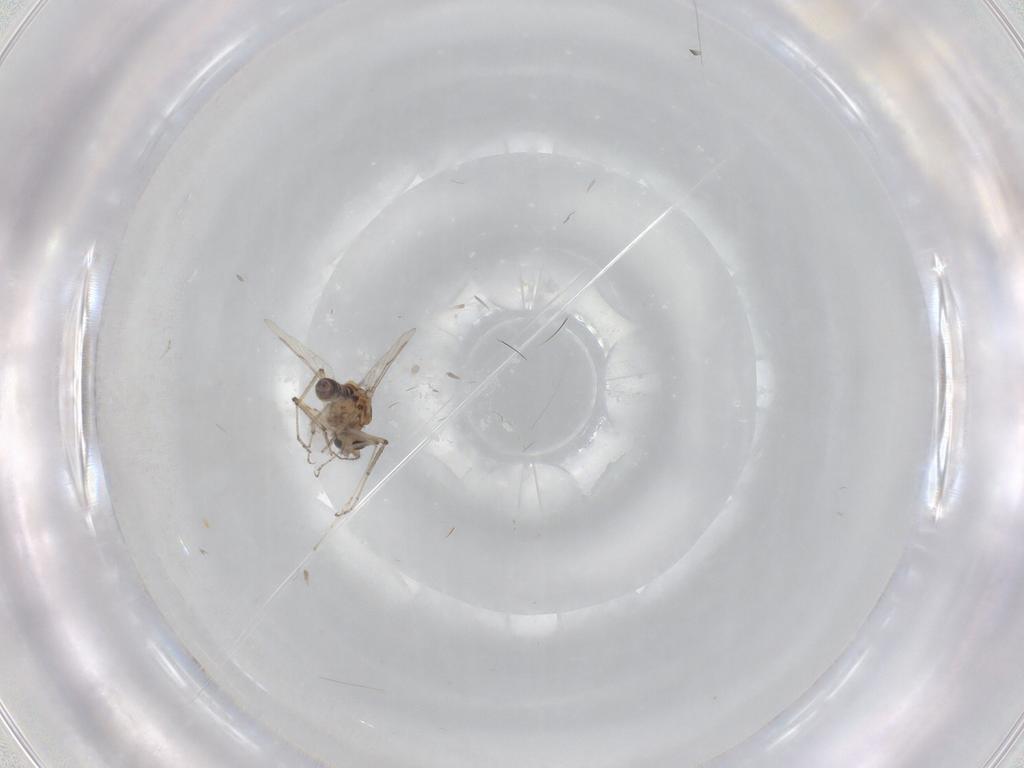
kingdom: Animalia
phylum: Arthropoda
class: Insecta
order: Diptera
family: Ceratopogonidae
